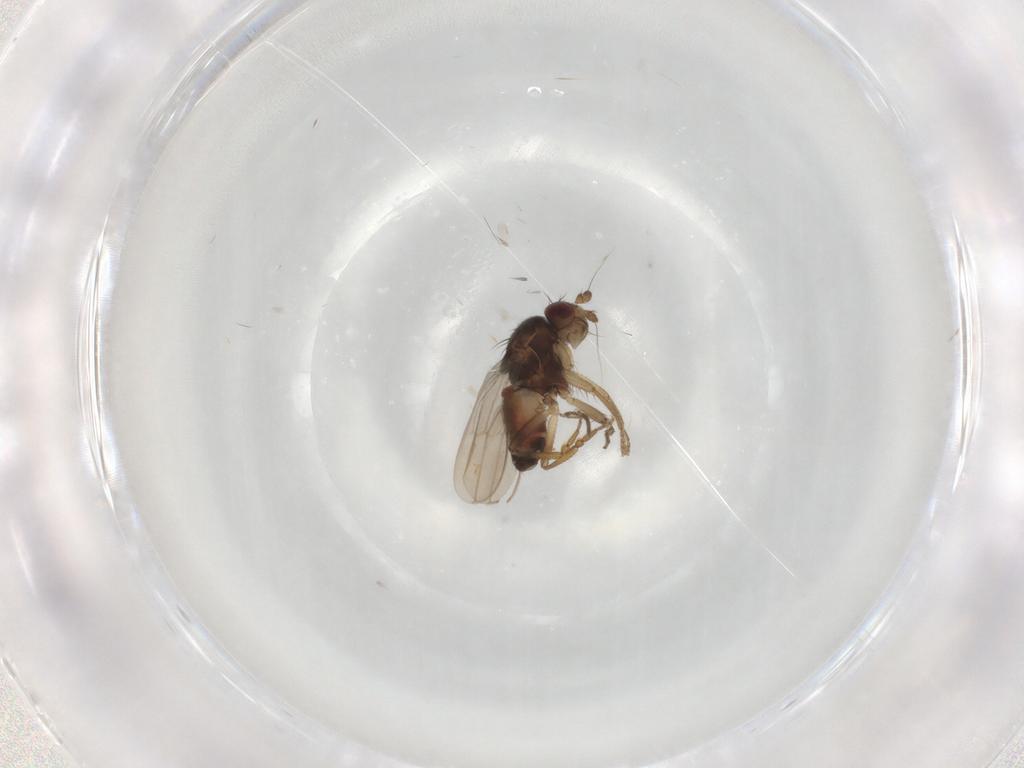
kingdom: Animalia
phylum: Arthropoda
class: Insecta
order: Diptera
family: Sciaridae
